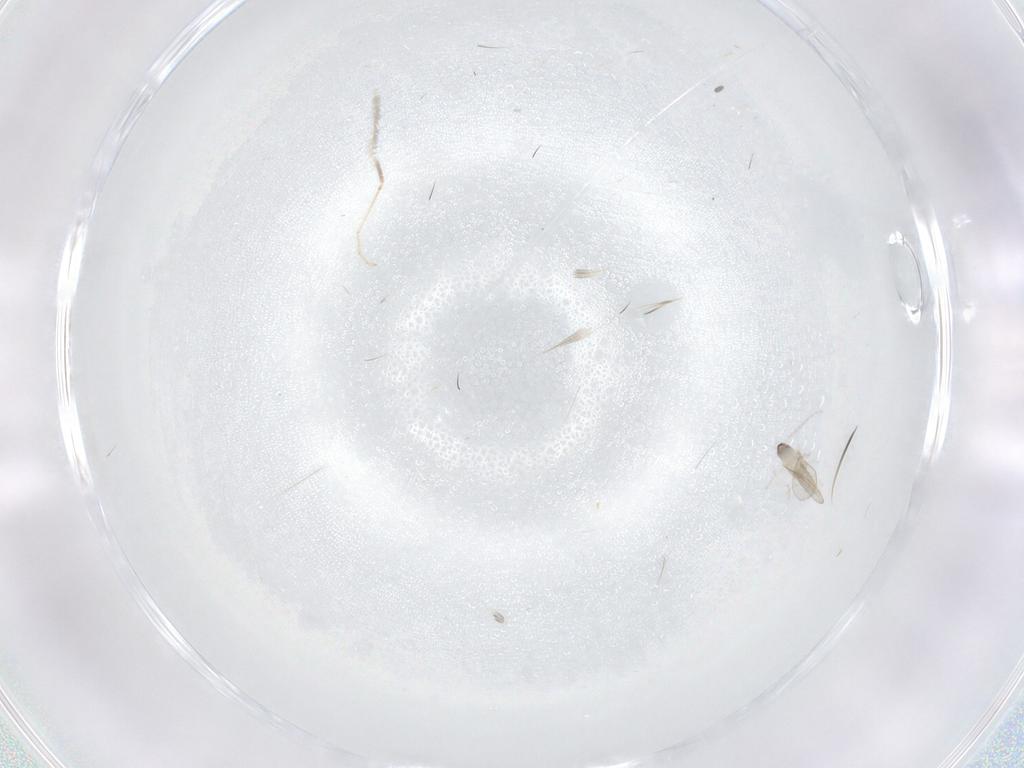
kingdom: Animalia
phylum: Arthropoda
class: Insecta
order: Diptera
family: Cecidomyiidae
